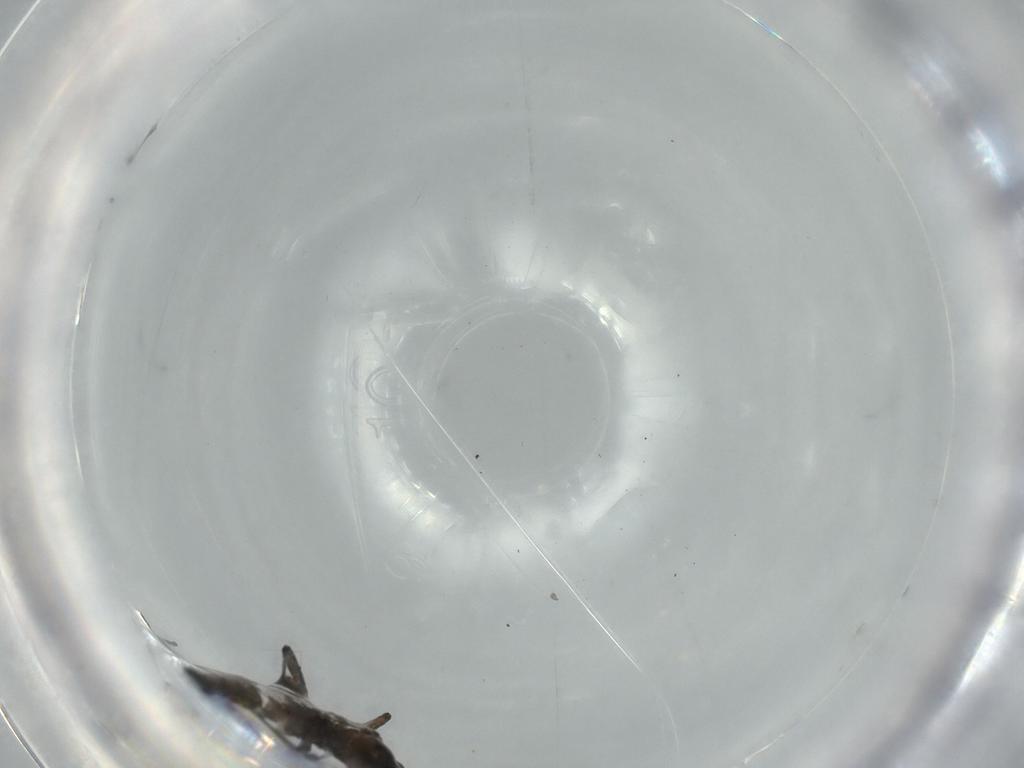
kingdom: Animalia
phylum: Arthropoda
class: Insecta
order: Diptera
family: Sciaridae
